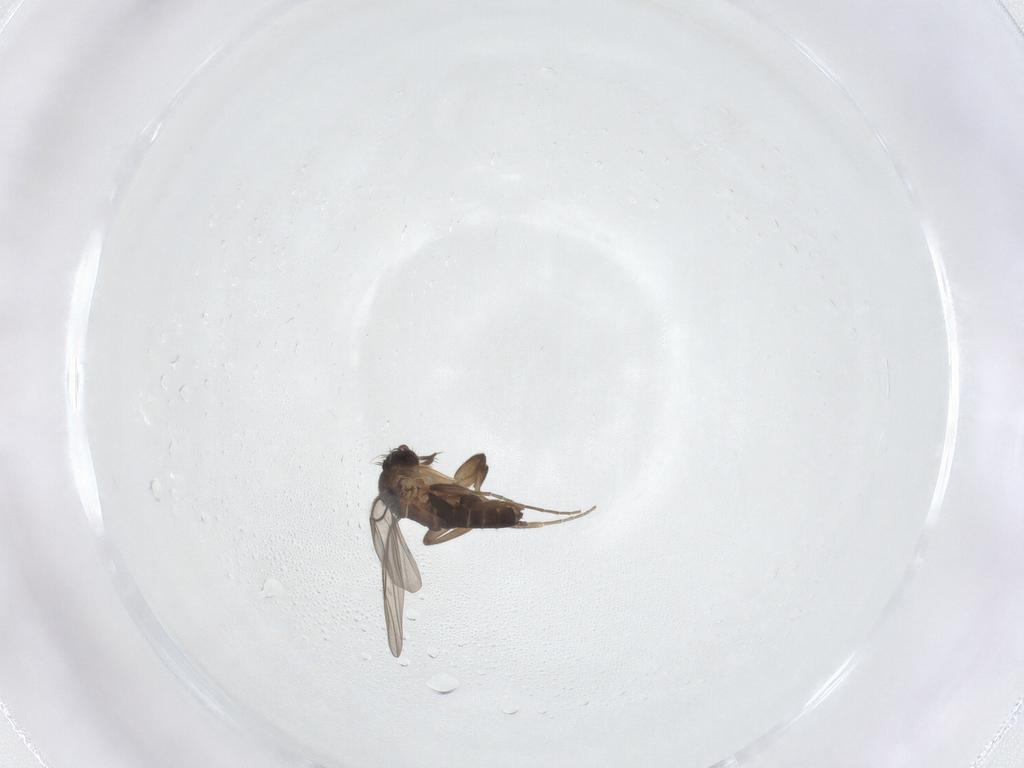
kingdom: Animalia
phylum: Arthropoda
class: Insecta
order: Diptera
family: Phoridae
